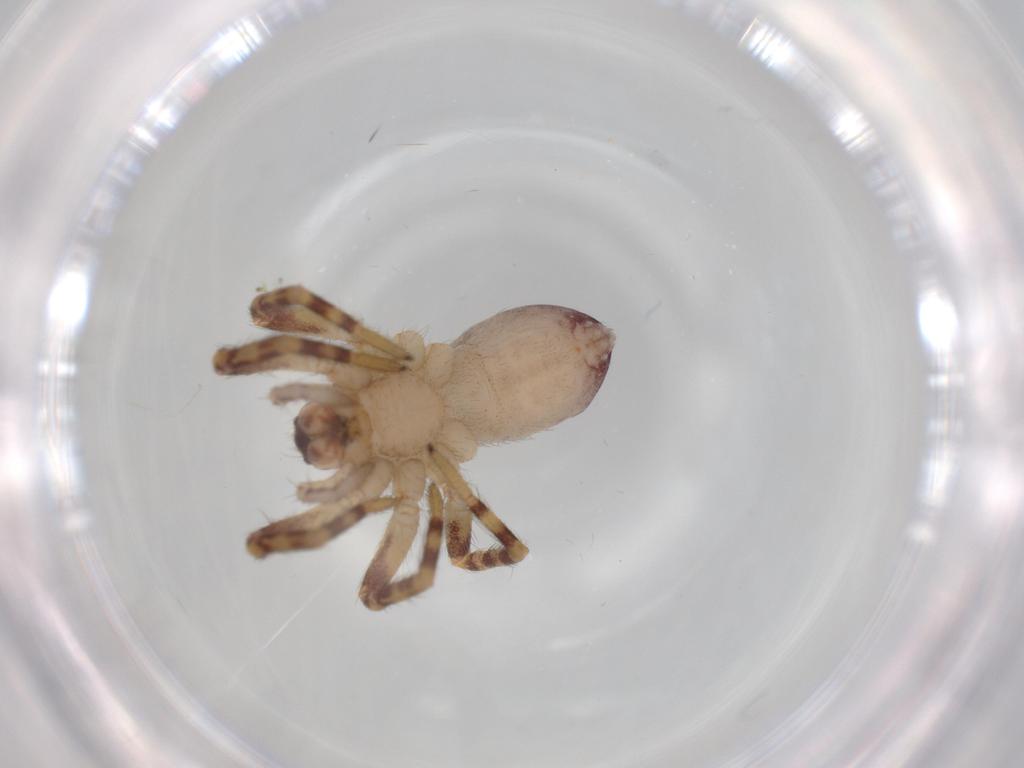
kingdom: Animalia
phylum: Arthropoda
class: Arachnida
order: Araneae
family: Corinnidae
